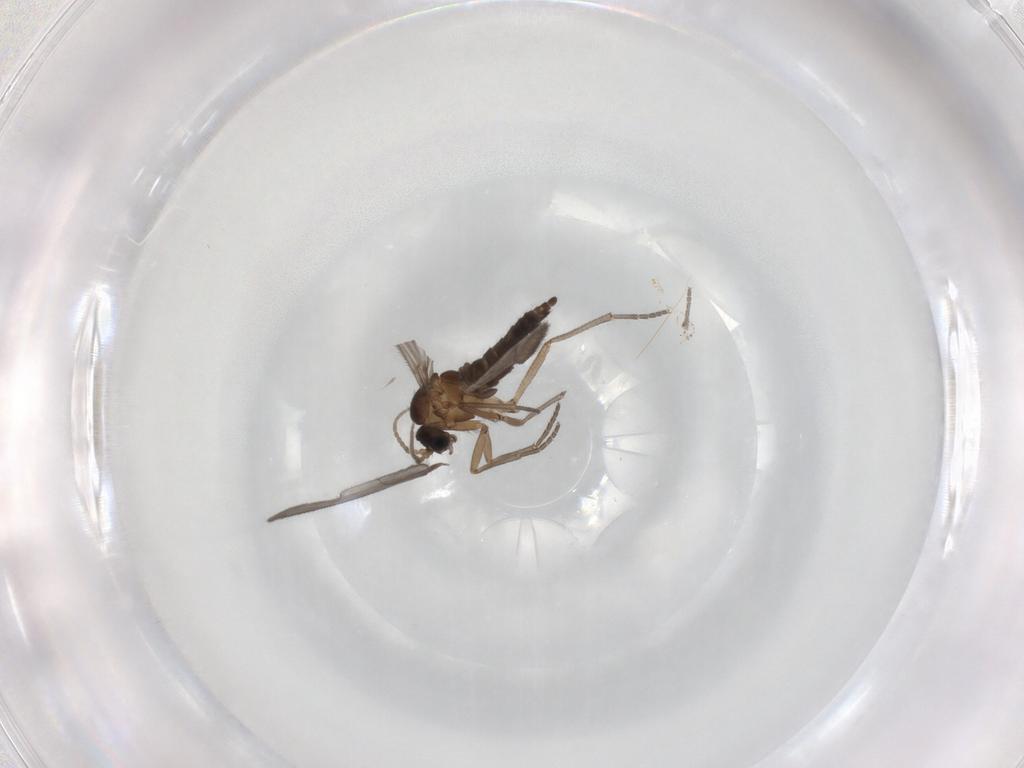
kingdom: Animalia
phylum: Arthropoda
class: Insecta
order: Diptera
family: Sciaridae
